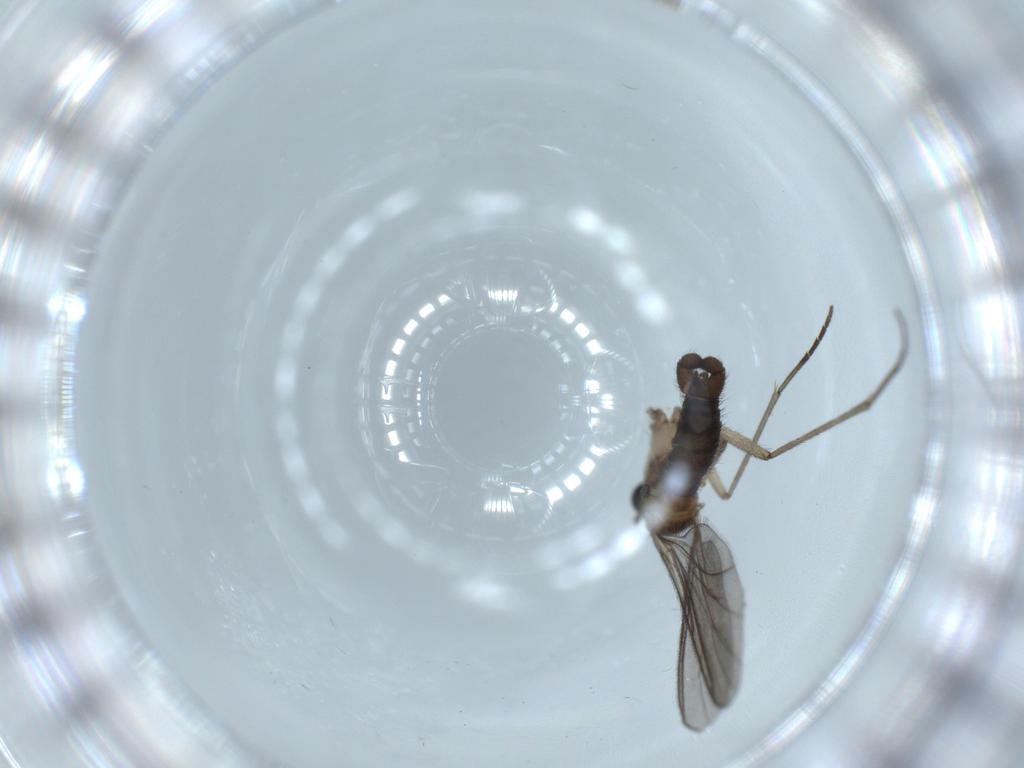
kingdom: Animalia
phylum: Arthropoda
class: Insecta
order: Diptera
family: Sciaridae
